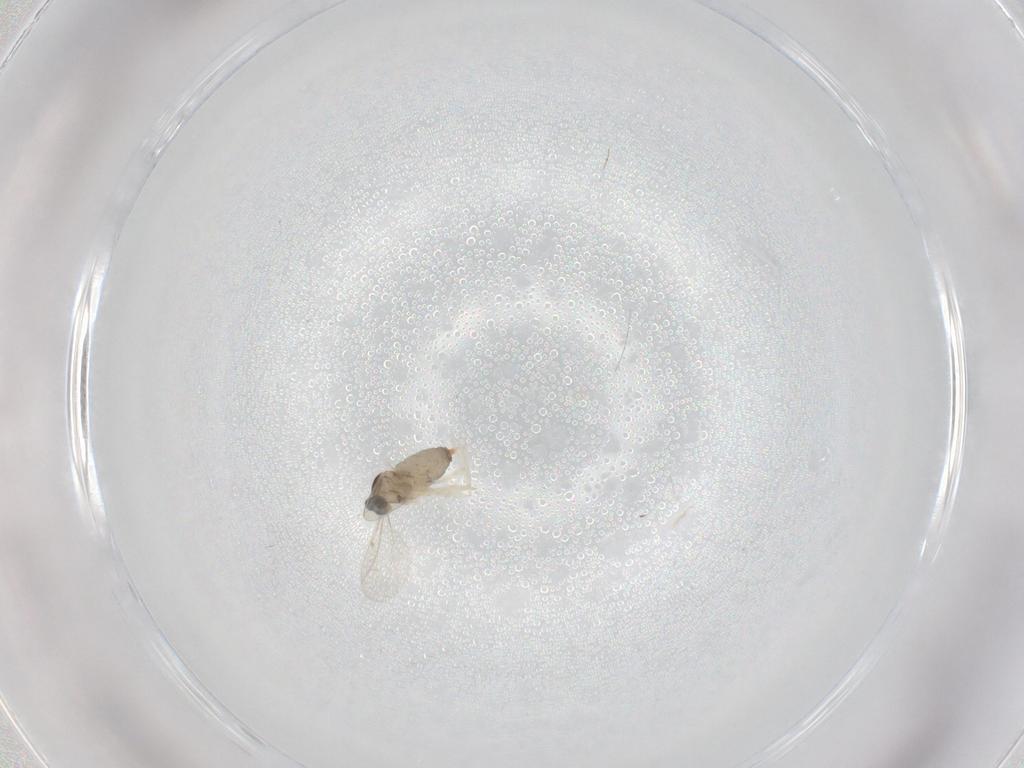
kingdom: Animalia
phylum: Arthropoda
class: Insecta
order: Diptera
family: Cecidomyiidae
